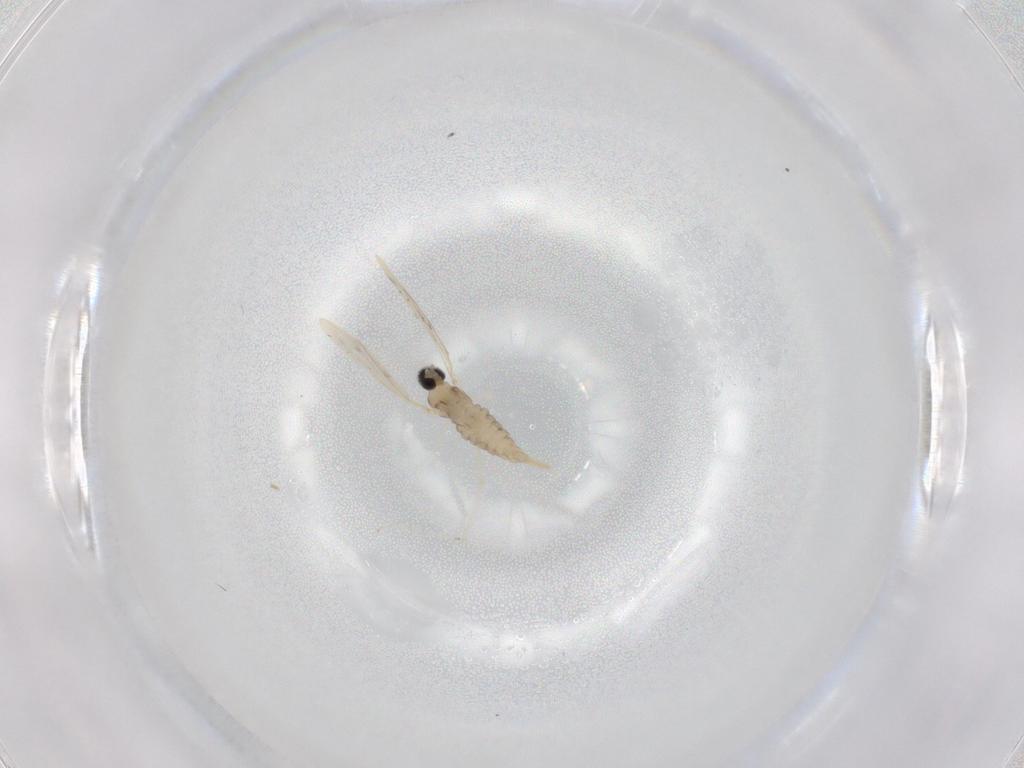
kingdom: Animalia
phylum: Arthropoda
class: Insecta
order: Diptera
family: Cecidomyiidae
